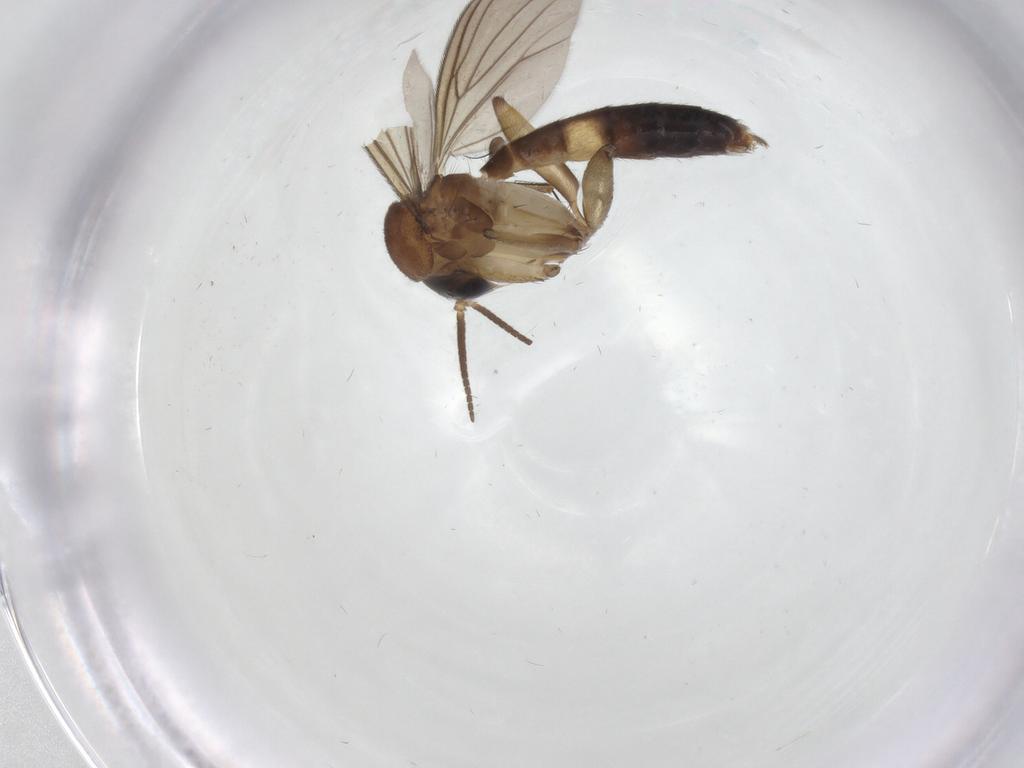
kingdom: Animalia
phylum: Arthropoda
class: Insecta
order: Diptera
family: Mycetophilidae
